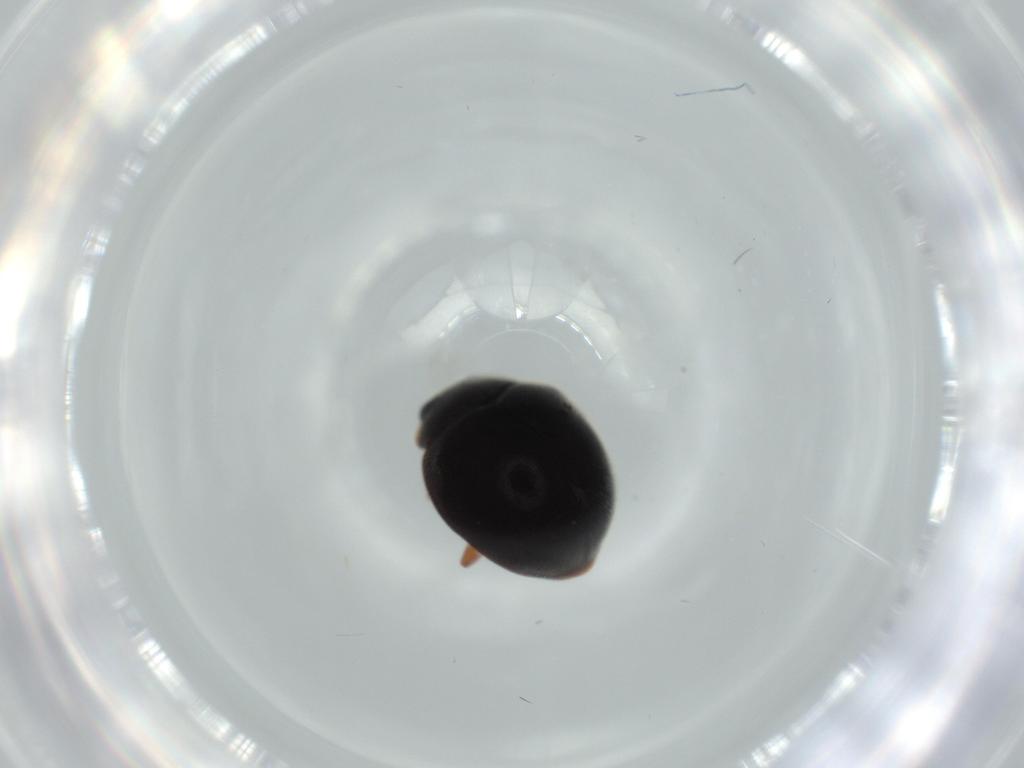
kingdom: Animalia
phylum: Arthropoda
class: Insecta
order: Coleoptera
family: Coccinellidae
